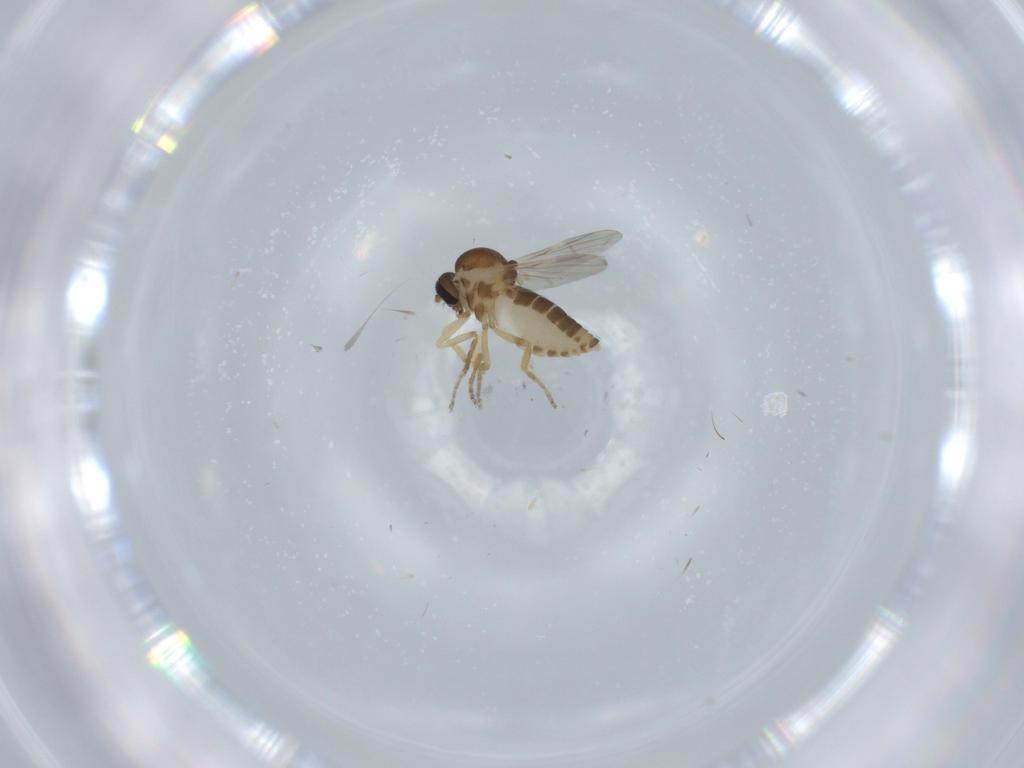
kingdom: Animalia
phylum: Arthropoda
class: Insecta
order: Diptera
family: Ceratopogonidae
